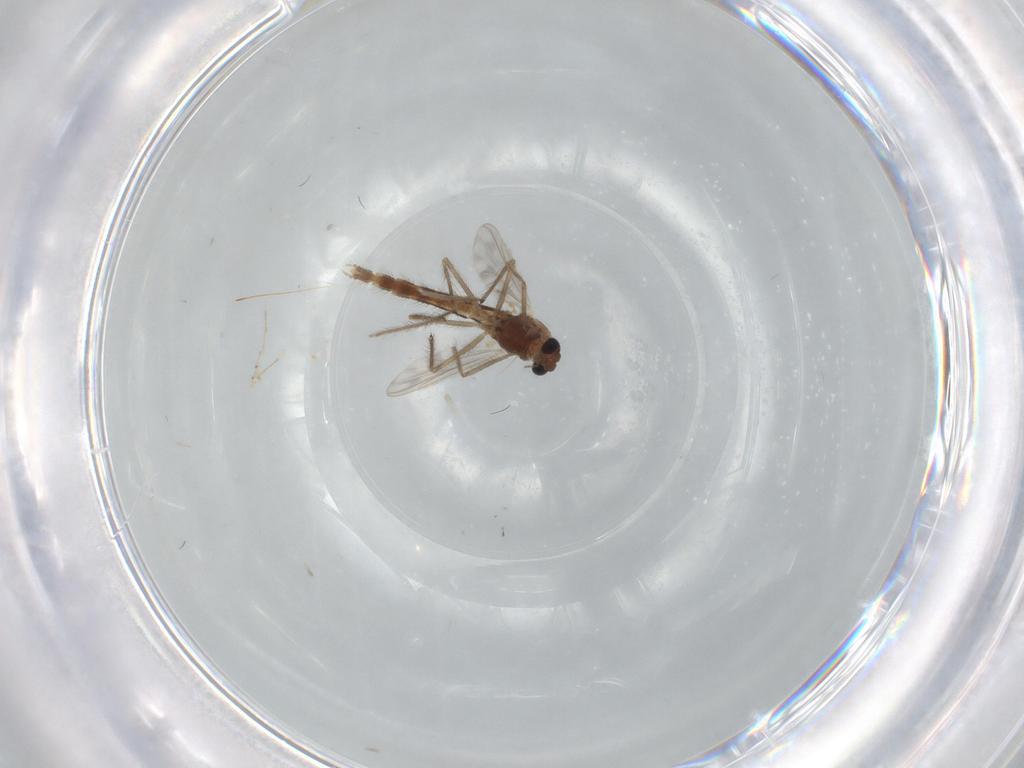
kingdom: Animalia
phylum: Arthropoda
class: Insecta
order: Diptera
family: Chironomidae
